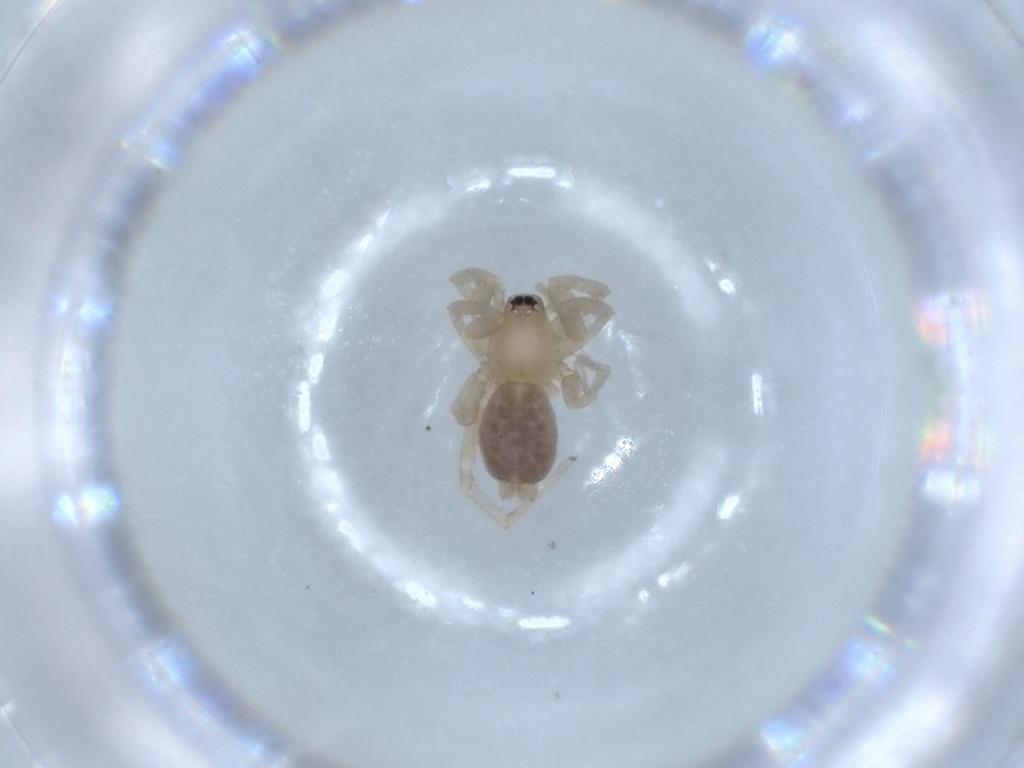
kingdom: Animalia
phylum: Arthropoda
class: Arachnida
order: Araneae
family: Gnaphosidae
